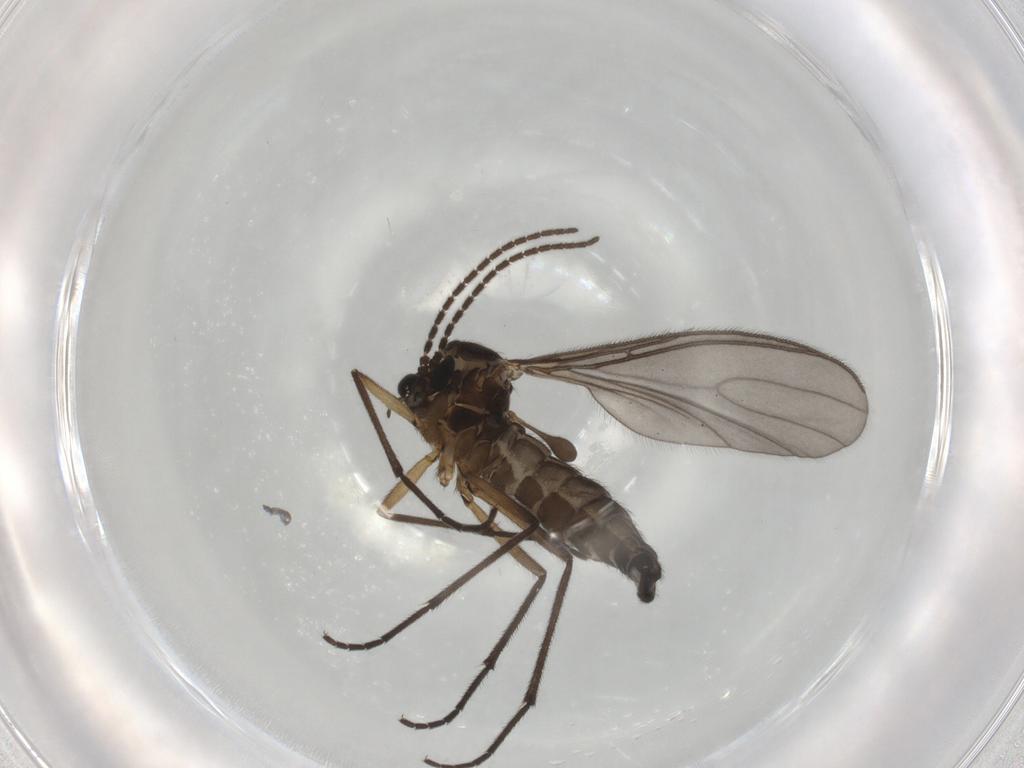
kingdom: Animalia
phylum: Arthropoda
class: Insecta
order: Diptera
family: Sciaridae
